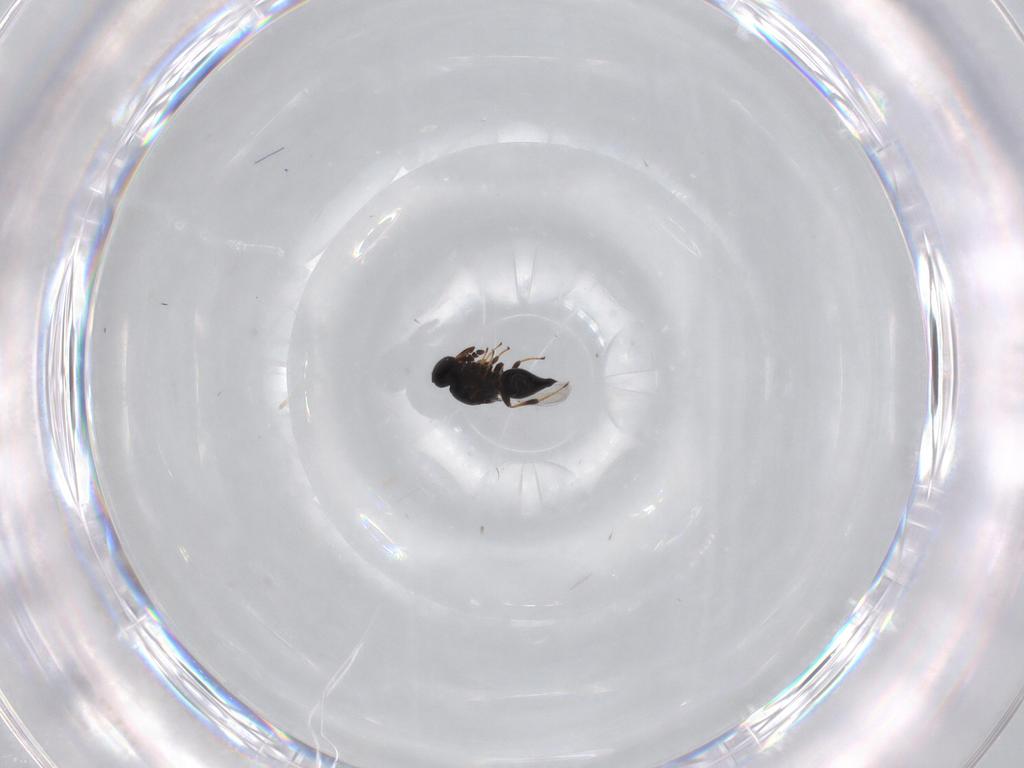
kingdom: Animalia
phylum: Arthropoda
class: Insecta
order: Hymenoptera
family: Platygastridae
